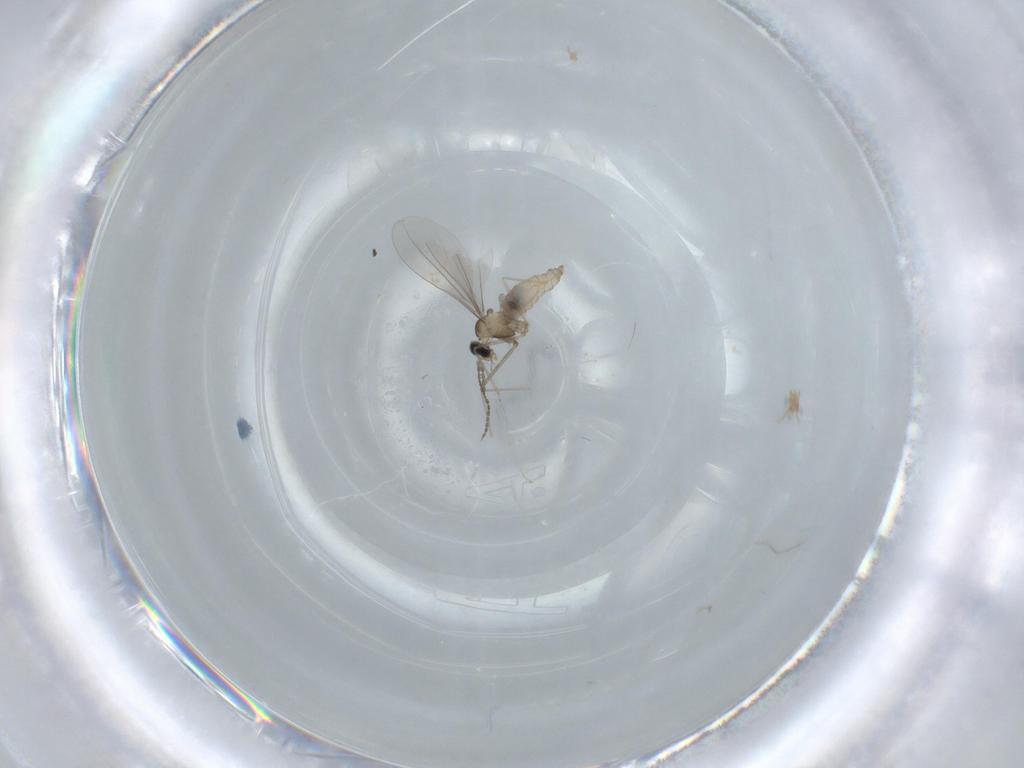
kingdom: Animalia
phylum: Arthropoda
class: Insecta
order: Diptera
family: Cecidomyiidae
